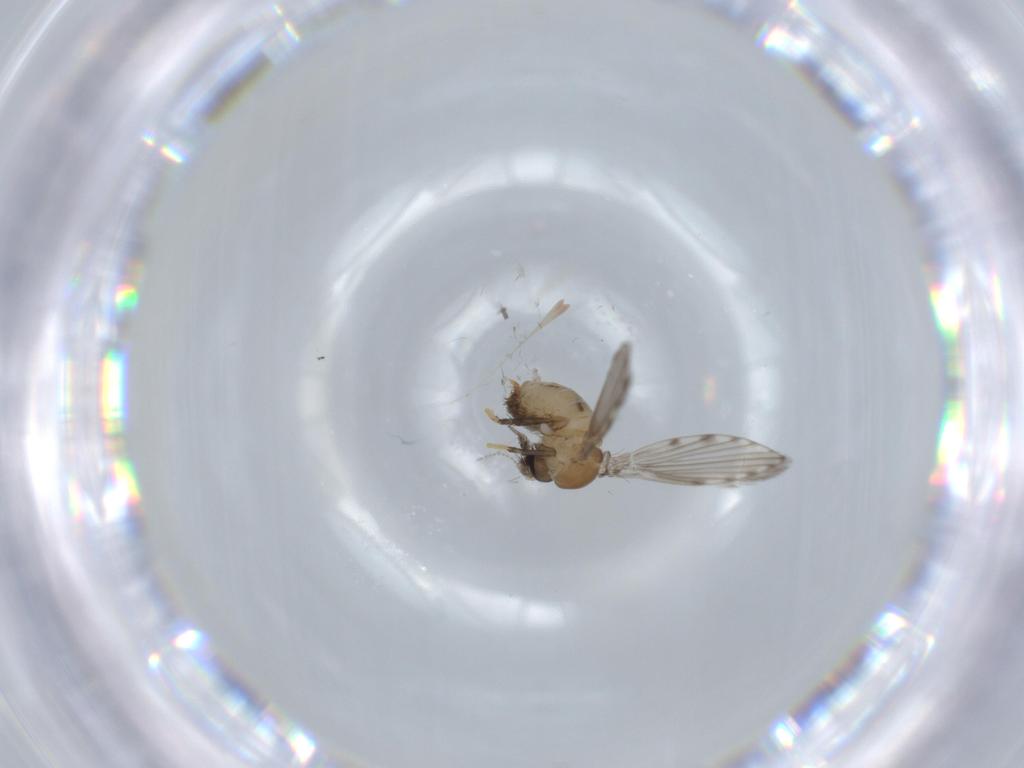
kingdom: Animalia
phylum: Arthropoda
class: Insecta
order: Diptera
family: Psychodidae
